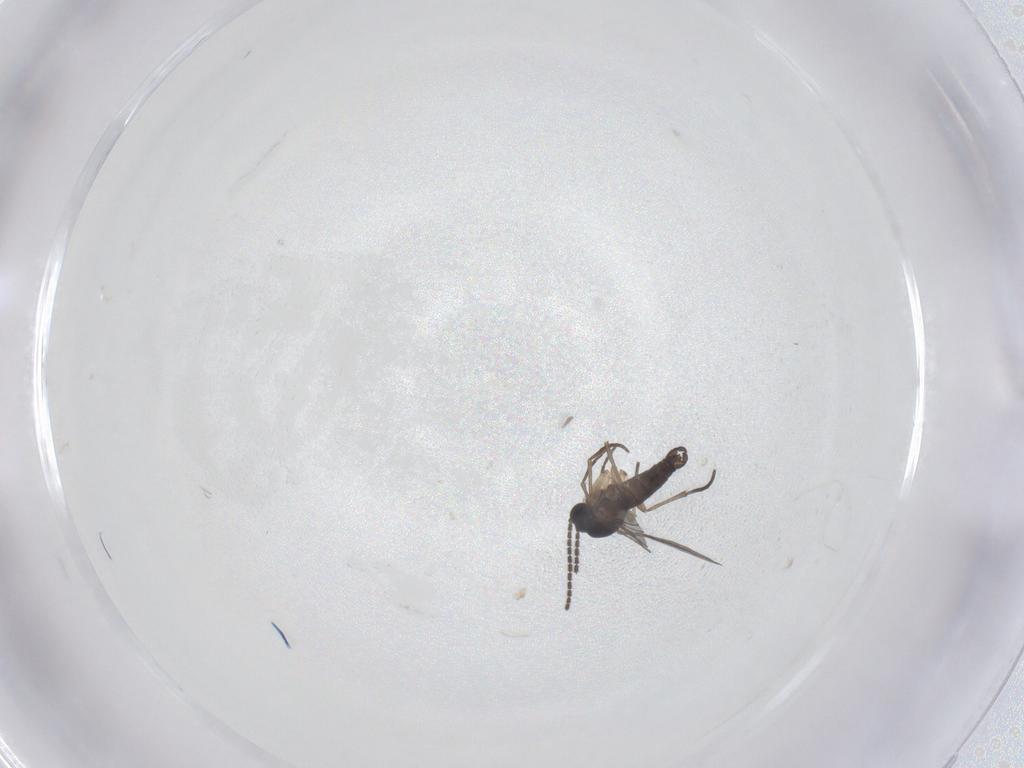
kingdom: Animalia
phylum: Arthropoda
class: Insecta
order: Diptera
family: Sciaridae
